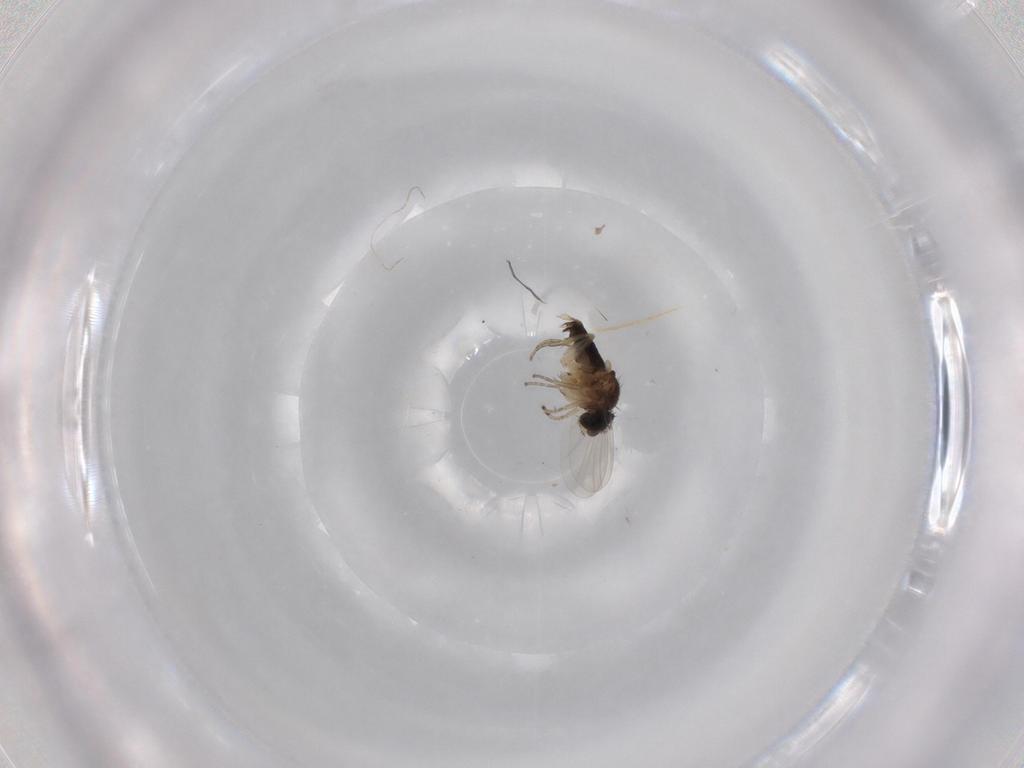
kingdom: Animalia
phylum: Arthropoda
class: Insecta
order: Diptera
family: Phoridae
